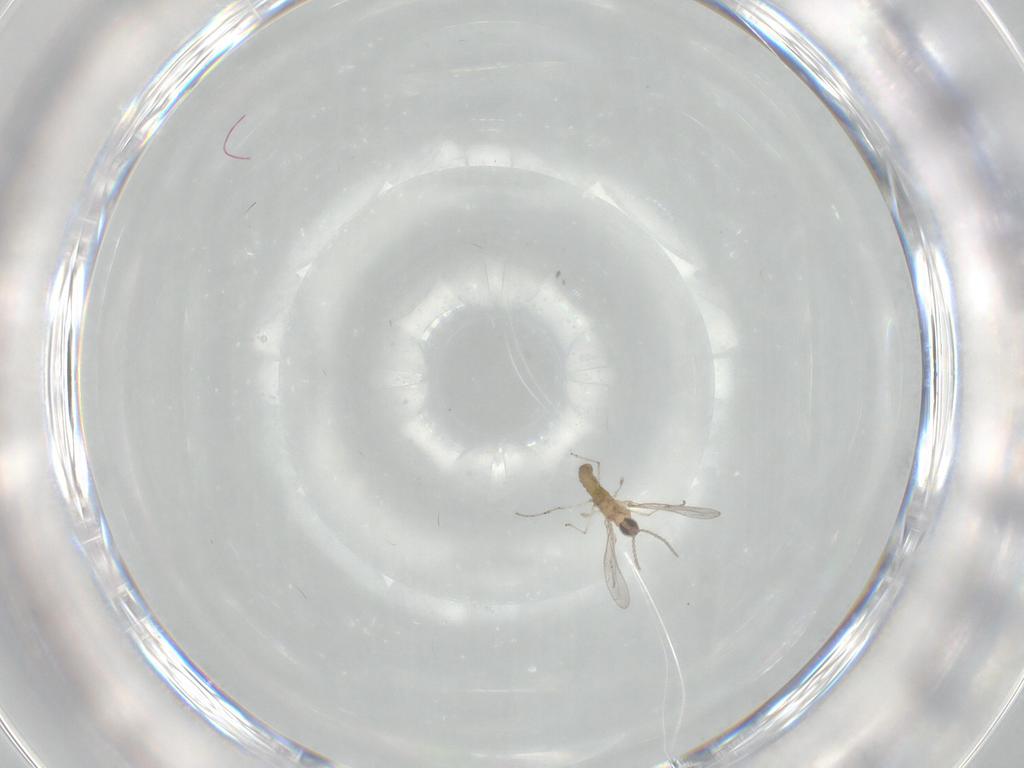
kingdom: Animalia
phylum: Arthropoda
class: Insecta
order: Diptera
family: Cecidomyiidae
